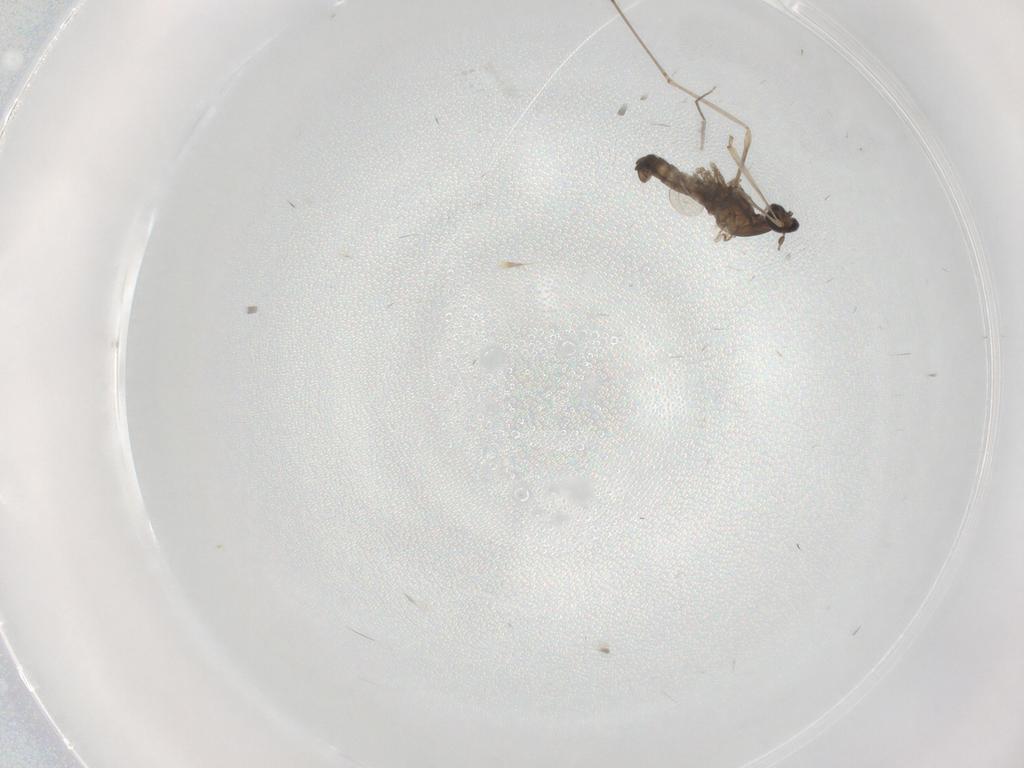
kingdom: Animalia
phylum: Arthropoda
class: Insecta
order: Diptera
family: Cecidomyiidae
